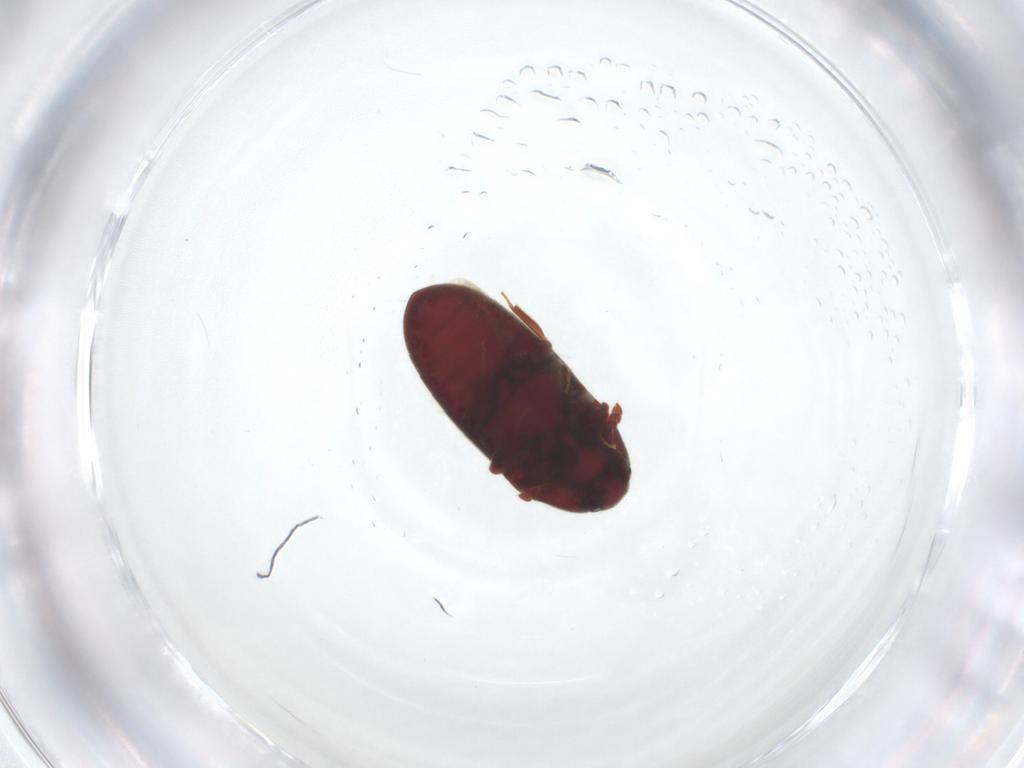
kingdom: Animalia
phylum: Arthropoda
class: Insecta
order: Coleoptera
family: Throscidae
